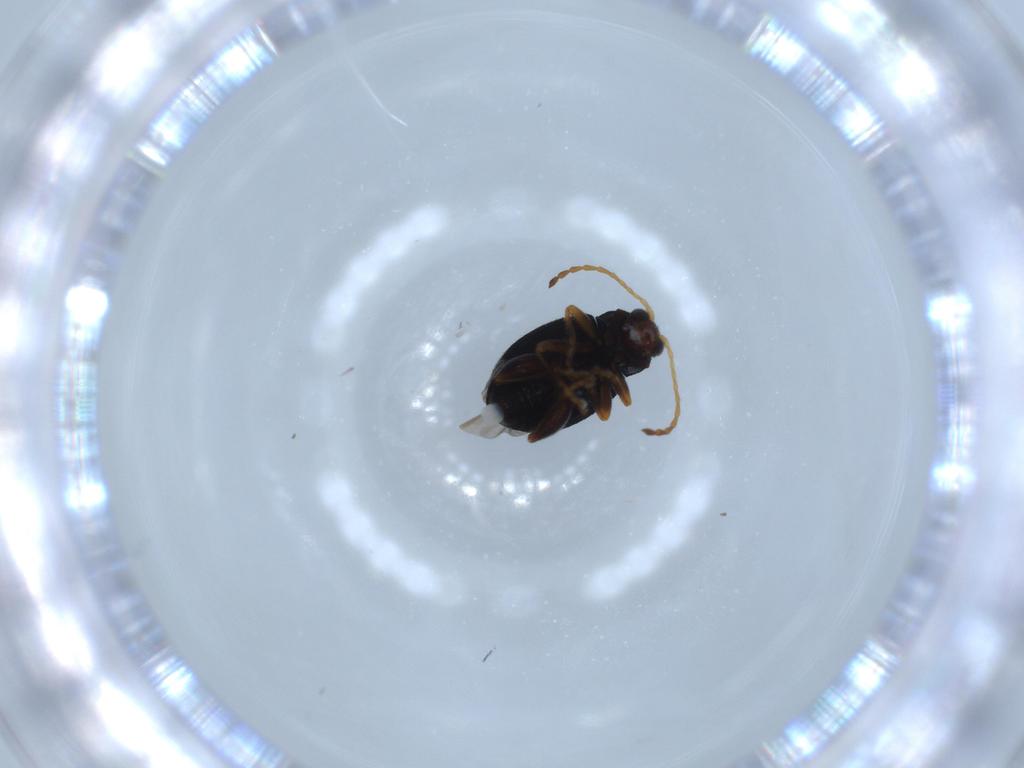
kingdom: Animalia
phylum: Arthropoda
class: Insecta
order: Coleoptera
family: Chrysomelidae
